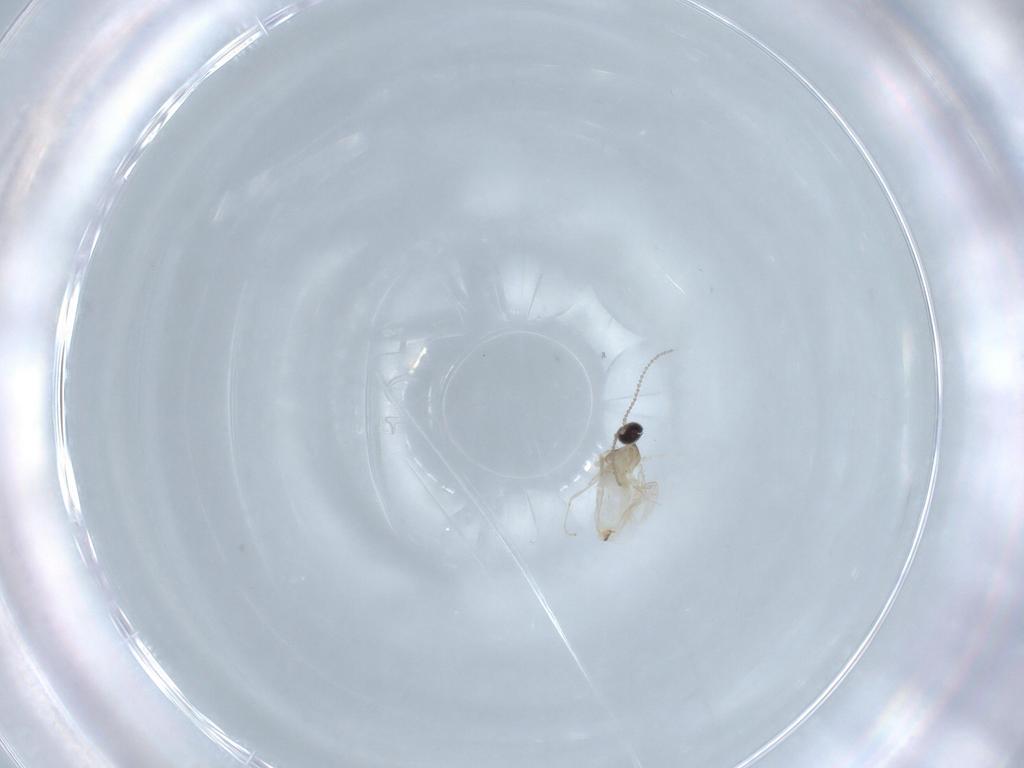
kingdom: Animalia
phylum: Arthropoda
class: Insecta
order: Diptera
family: Cecidomyiidae
